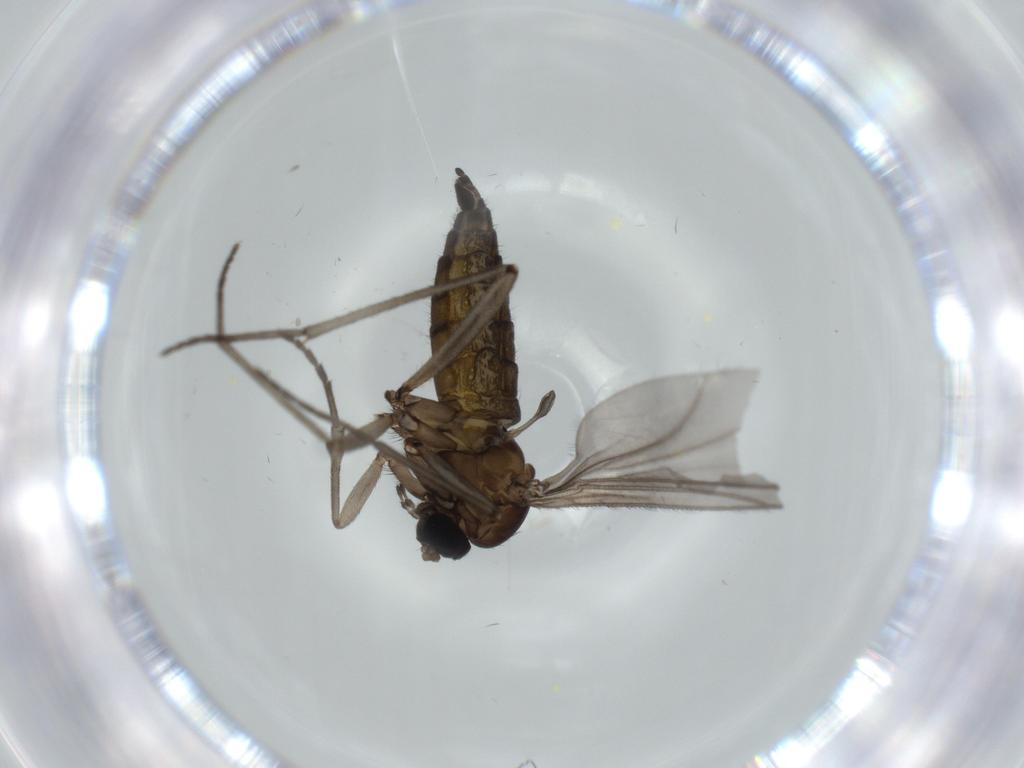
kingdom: Animalia
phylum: Arthropoda
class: Insecta
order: Diptera
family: Sciaridae
